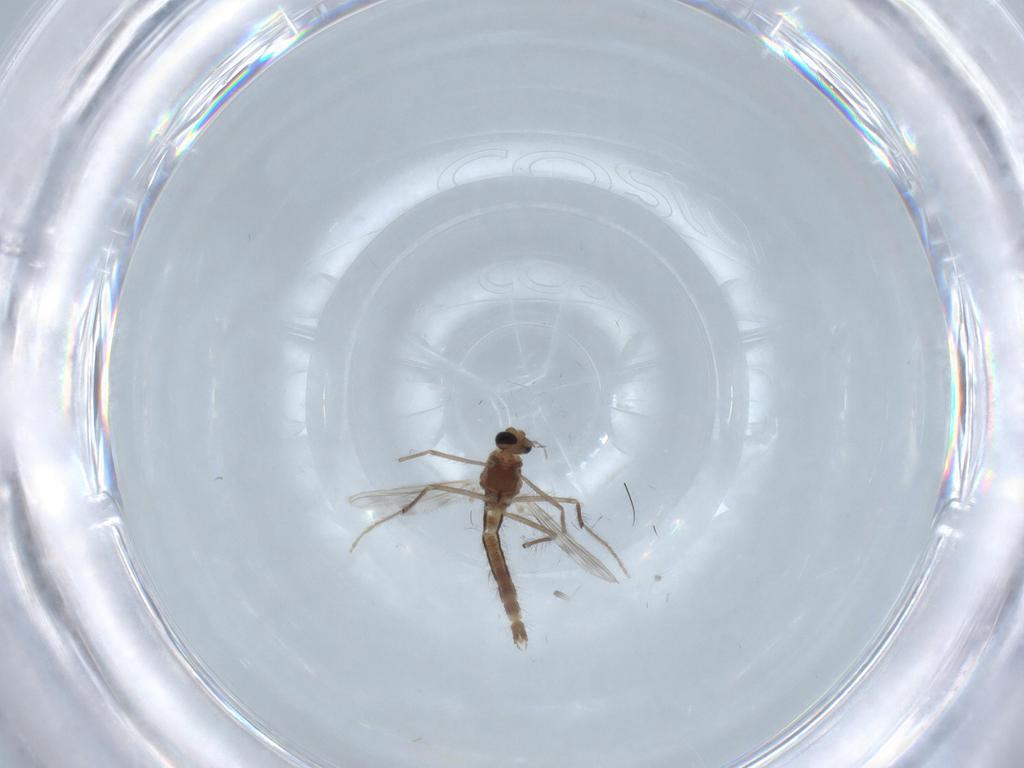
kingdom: Animalia
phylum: Arthropoda
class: Insecta
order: Diptera
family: Chironomidae
